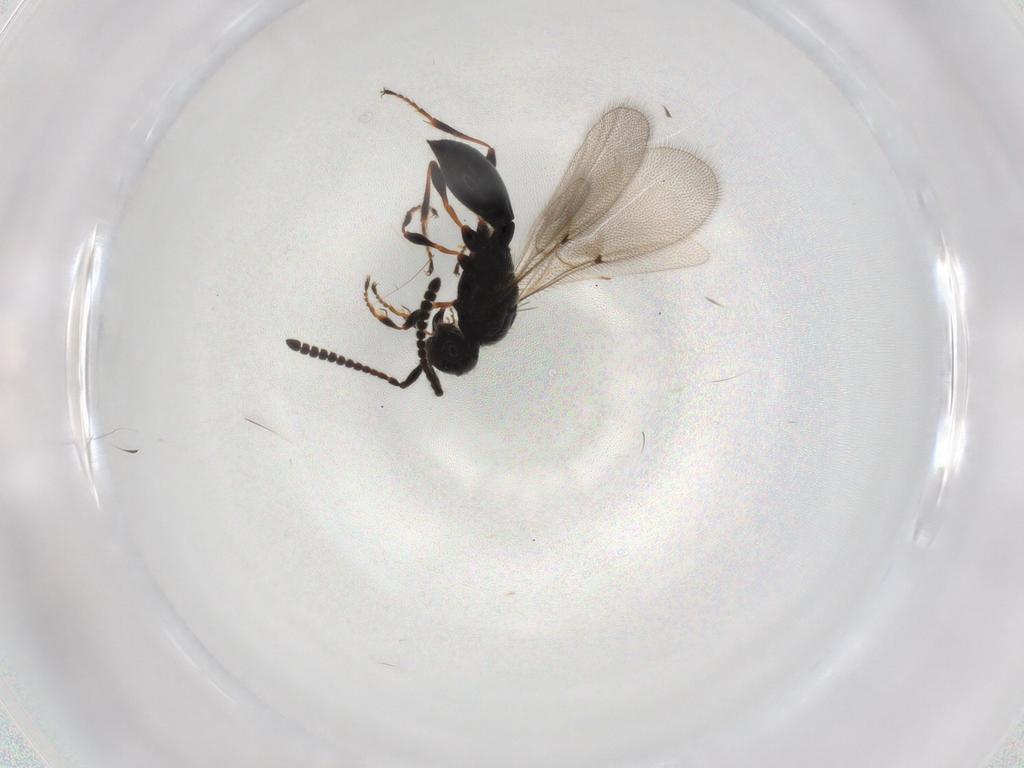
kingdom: Animalia
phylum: Arthropoda
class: Insecta
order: Hymenoptera
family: Diapriidae
